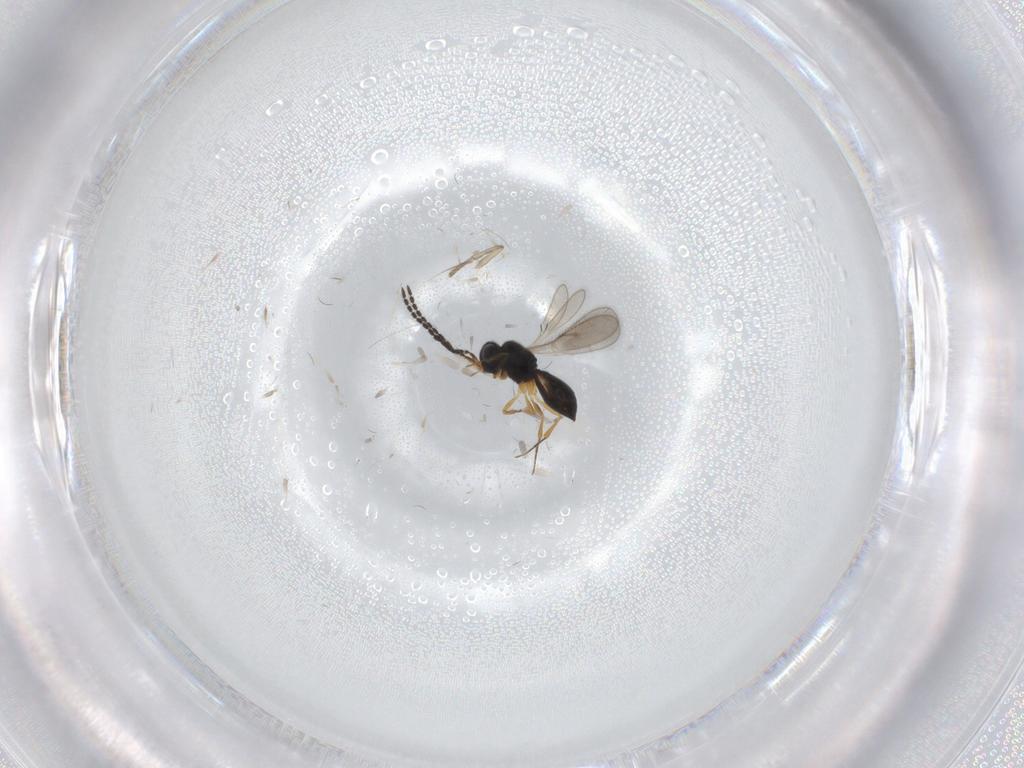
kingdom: Animalia
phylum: Arthropoda
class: Insecta
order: Hymenoptera
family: Scelionidae
